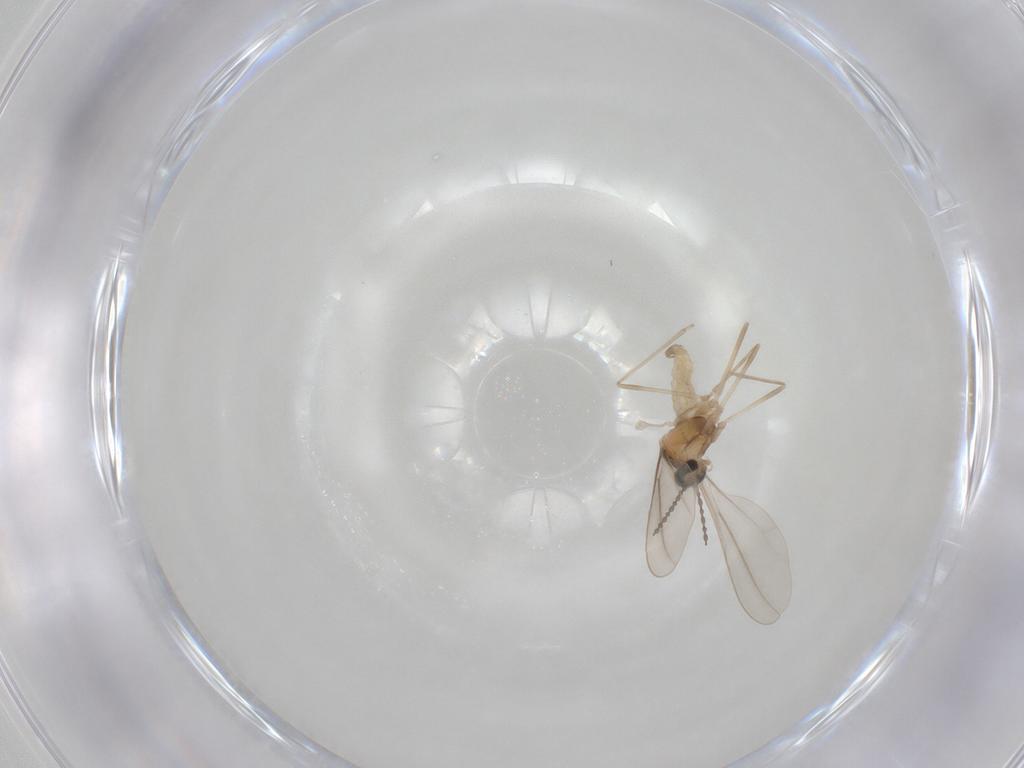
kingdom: Animalia
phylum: Arthropoda
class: Insecta
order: Diptera
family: Cecidomyiidae
